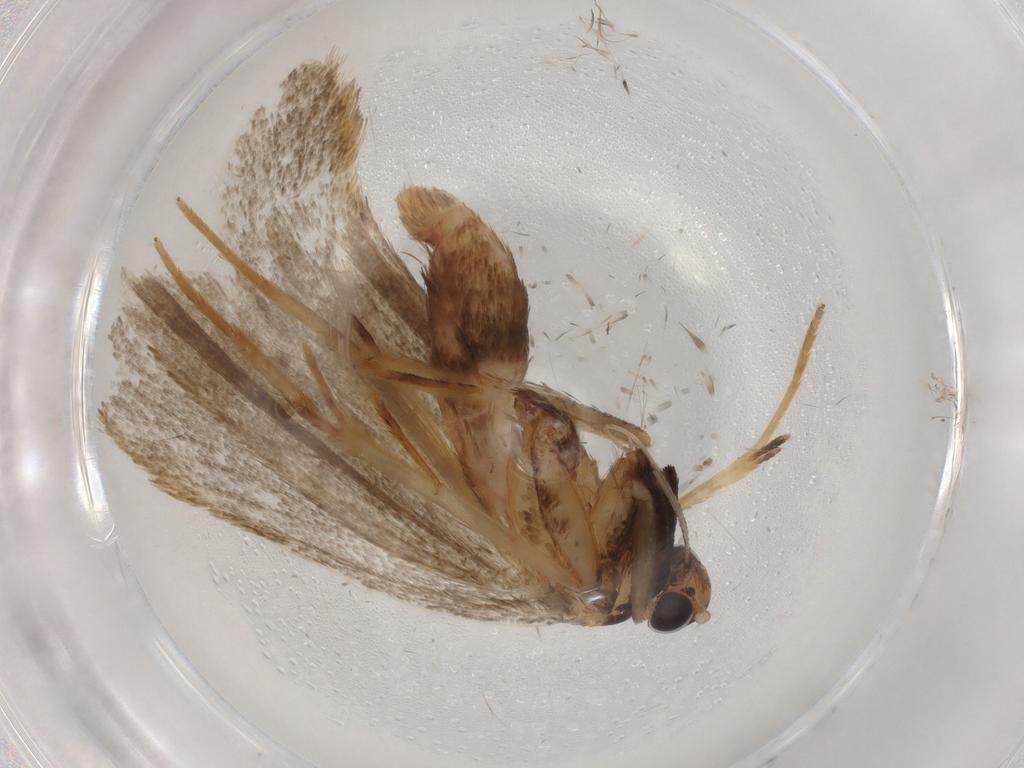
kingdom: Animalia
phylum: Arthropoda
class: Insecta
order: Lepidoptera
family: Lecithoceridae
